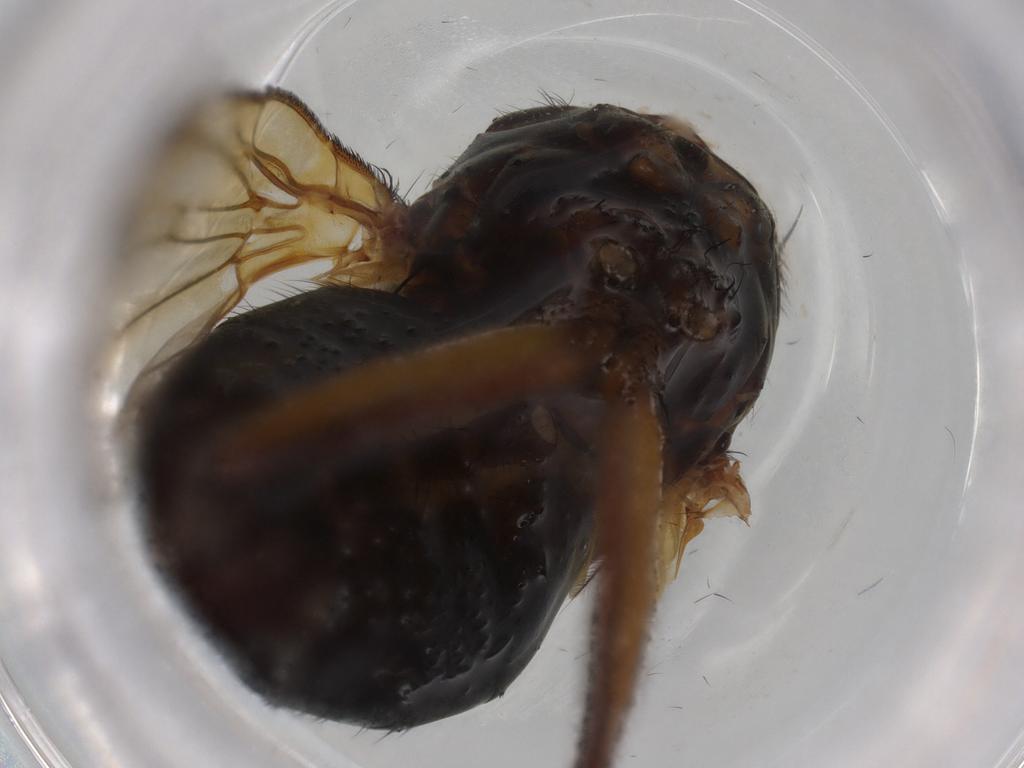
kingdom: Animalia
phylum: Arthropoda
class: Insecta
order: Diptera
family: Muscidae
